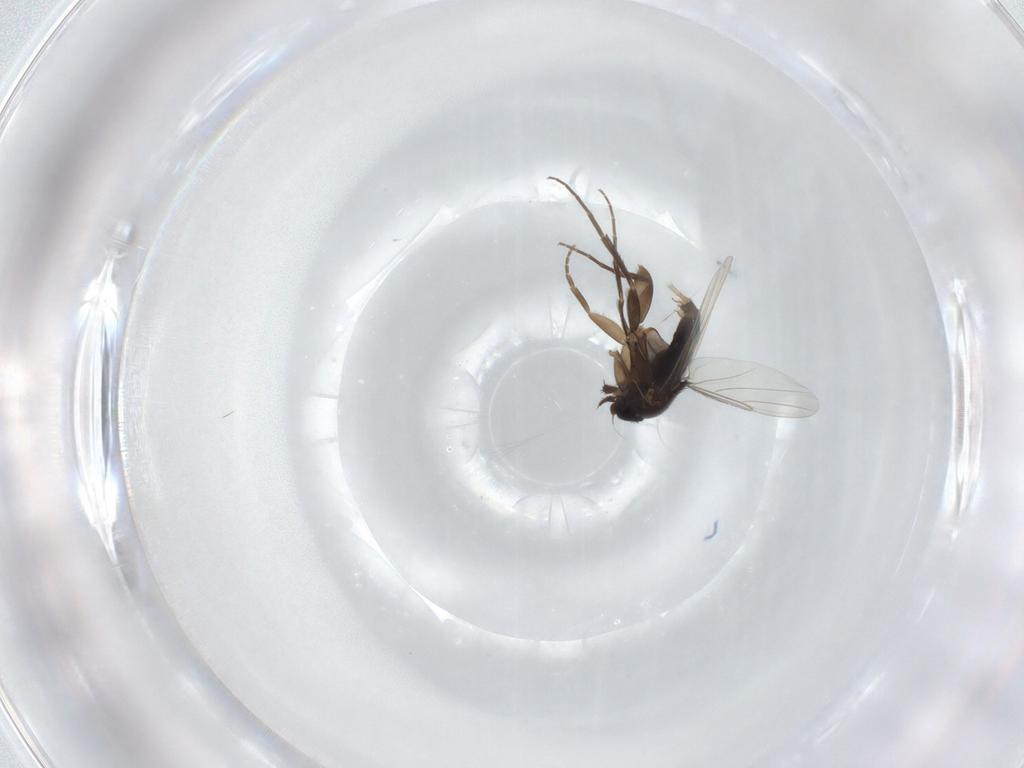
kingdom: Animalia
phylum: Arthropoda
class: Insecta
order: Diptera
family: Phoridae
